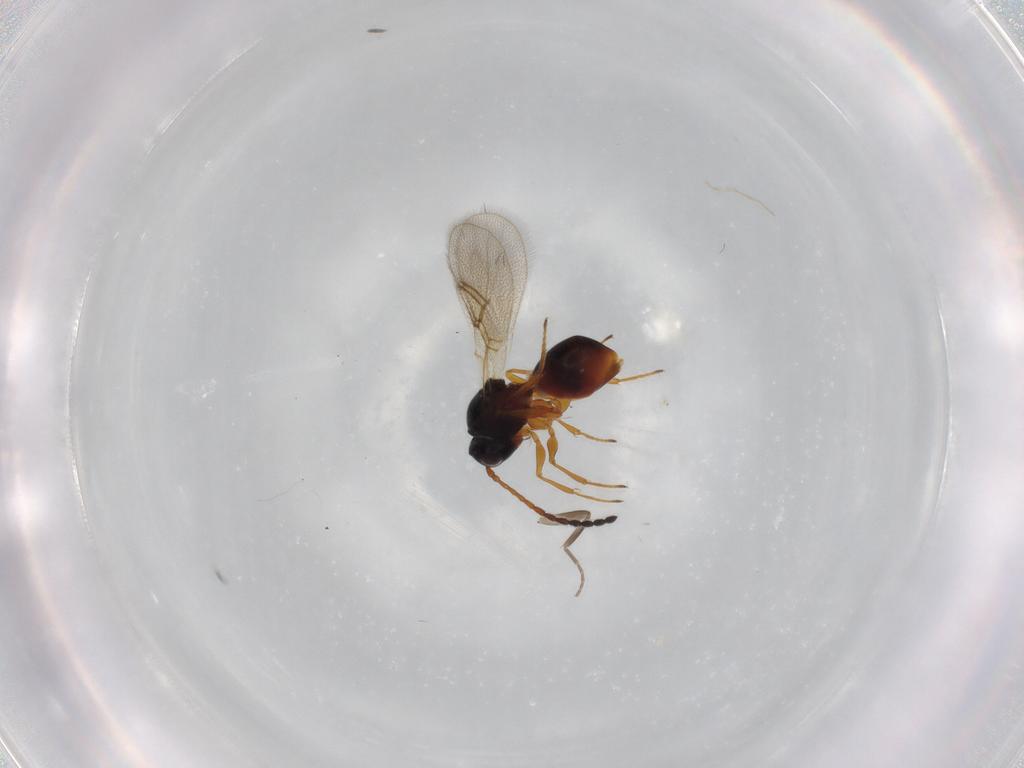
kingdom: Animalia
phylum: Arthropoda
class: Insecta
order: Hymenoptera
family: Figitidae
